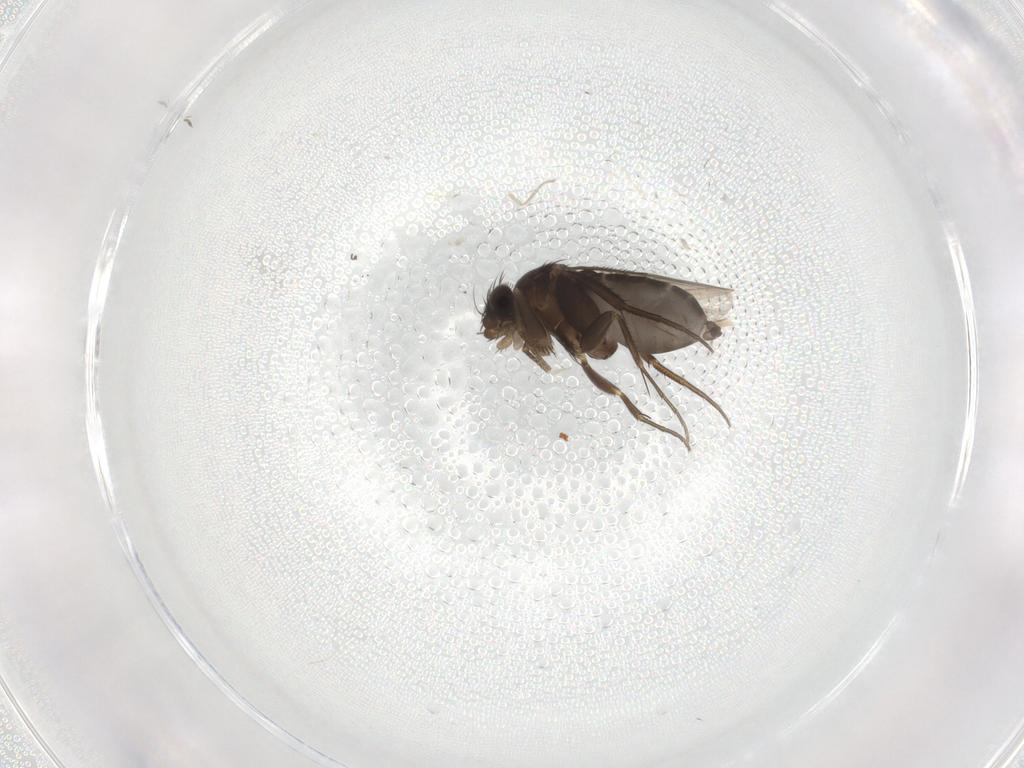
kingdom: Animalia
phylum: Arthropoda
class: Insecta
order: Diptera
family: Phoridae
